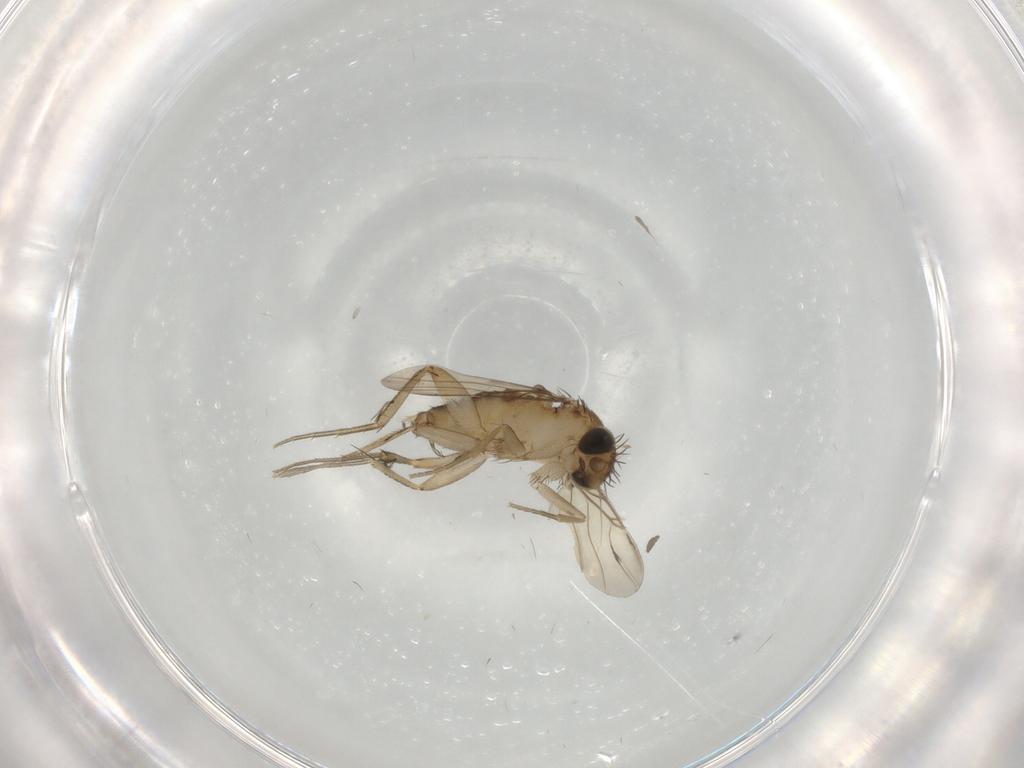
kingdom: Animalia
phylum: Arthropoda
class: Insecta
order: Diptera
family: Phoridae
